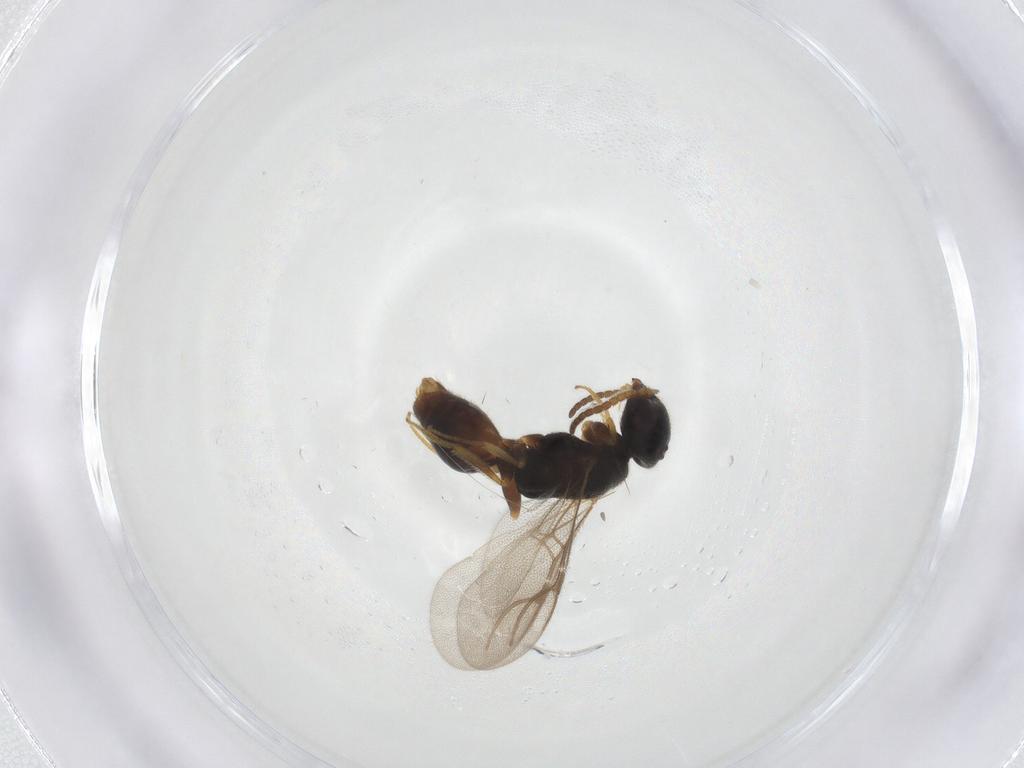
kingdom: Animalia
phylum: Arthropoda
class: Insecta
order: Hymenoptera
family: Bethylidae
